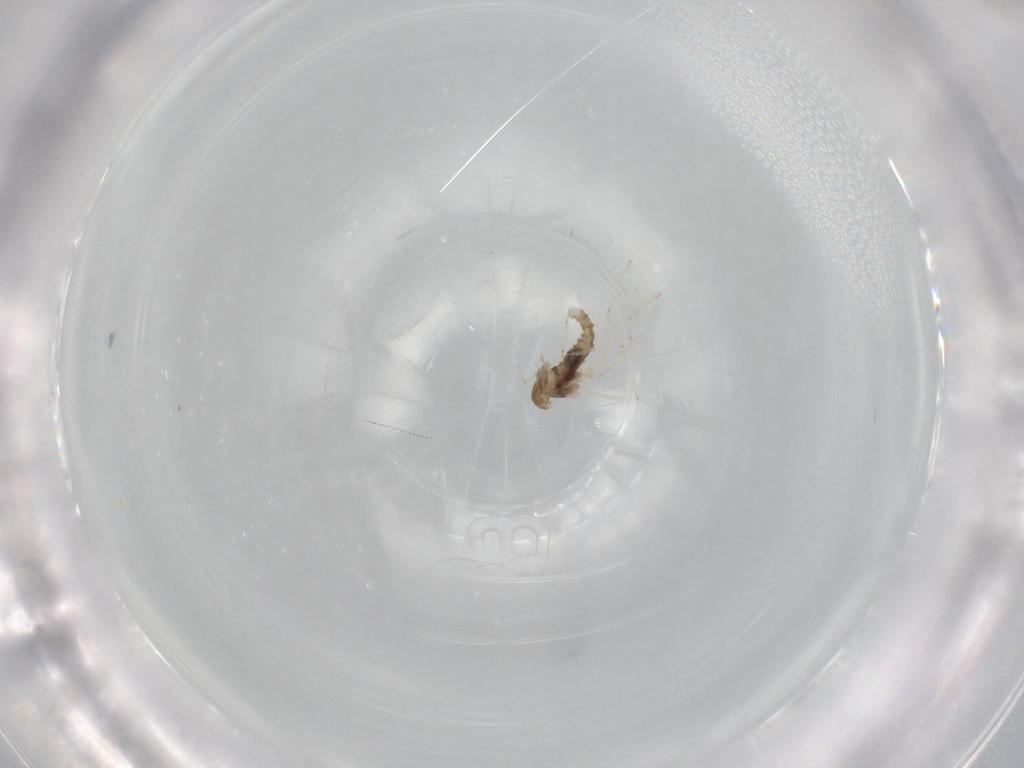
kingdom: Animalia
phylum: Arthropoda
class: Insecta
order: Diptera
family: Cecidomyiidae
